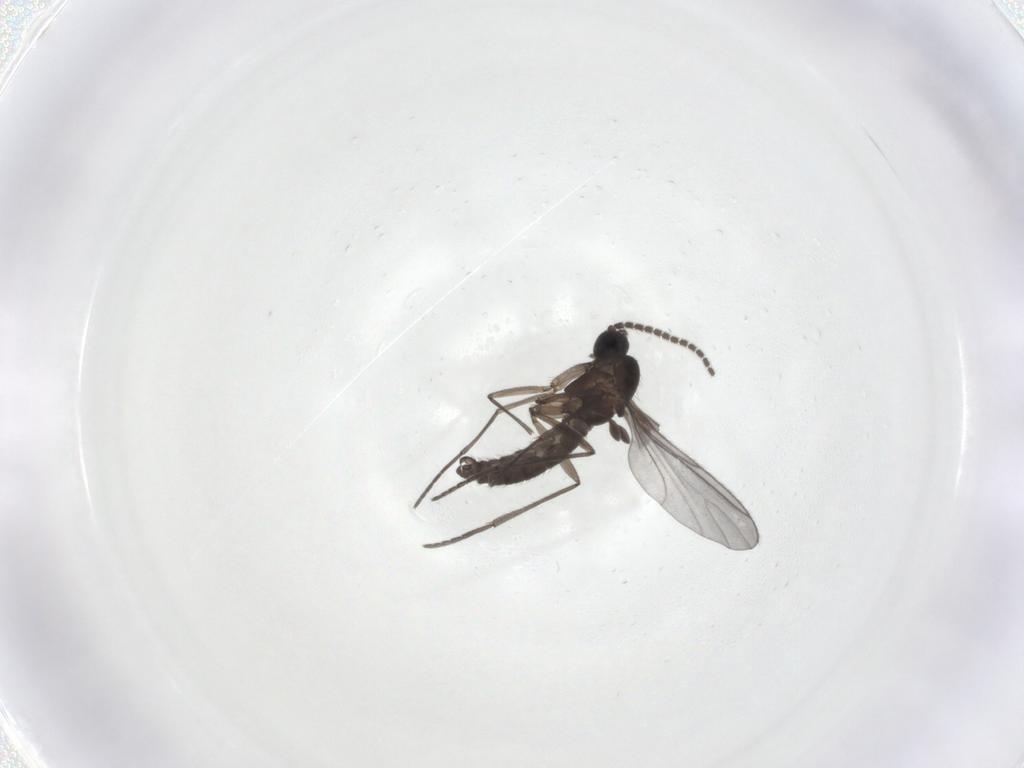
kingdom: Animalia
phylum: Arthropoda
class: Insecta
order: Diptera
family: Sciaridae
